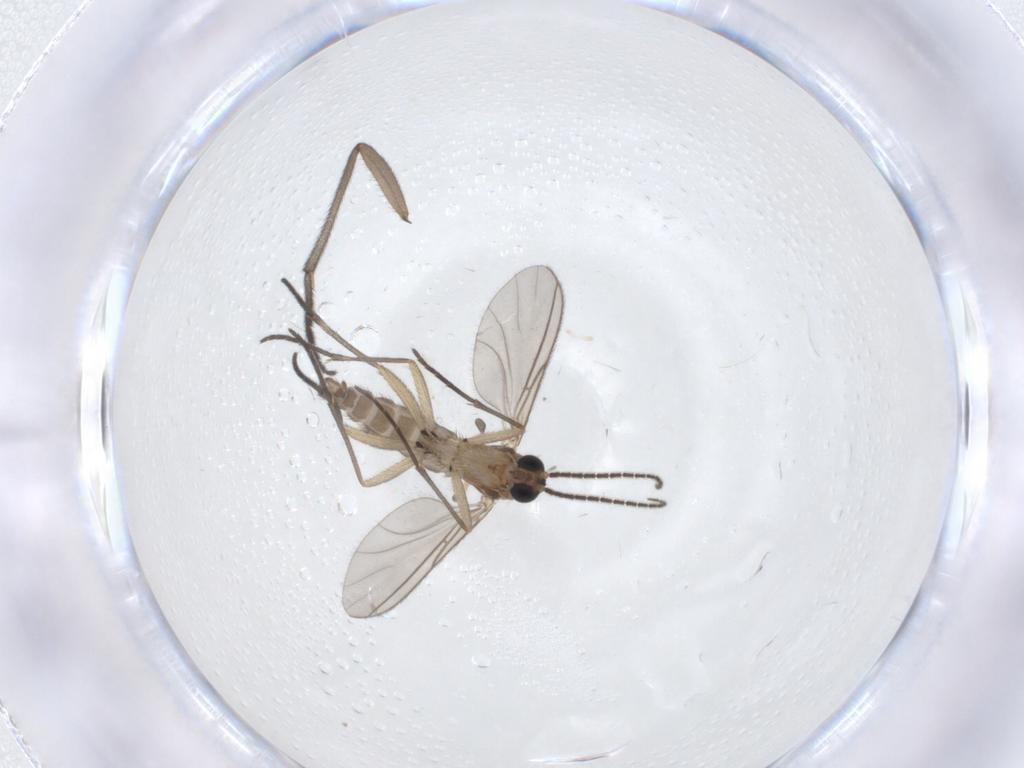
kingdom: Animalia
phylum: Arthropoda
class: Insecta
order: Diptera
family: Sciaridae
